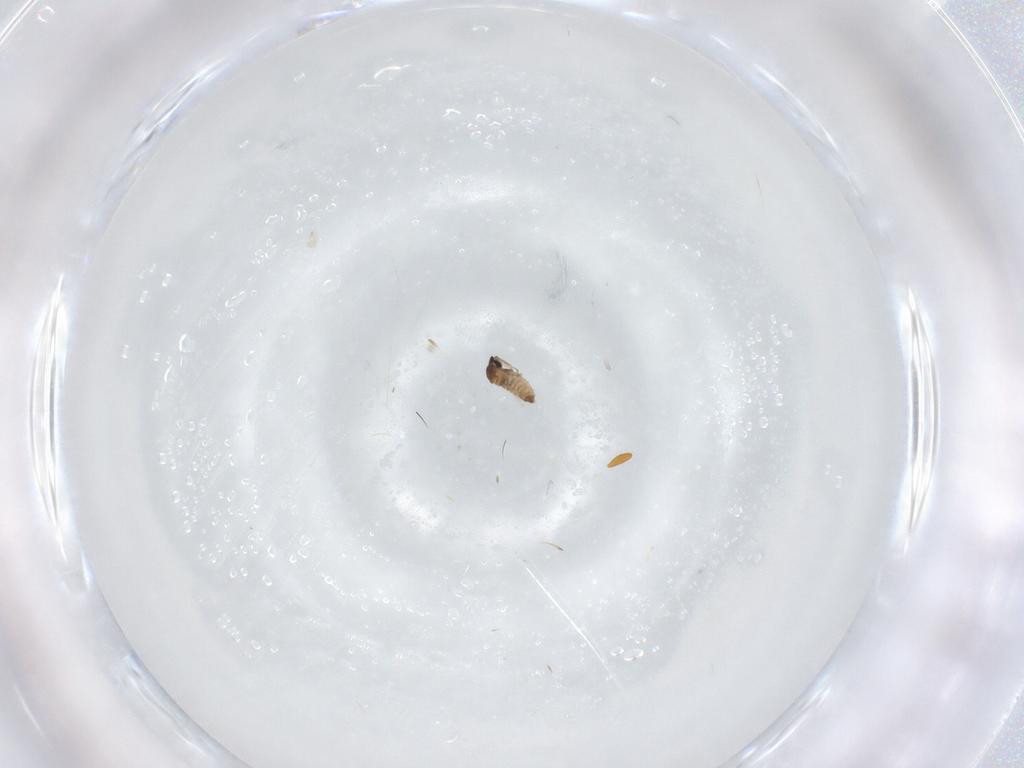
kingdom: Animalia
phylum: Arthropoda
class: Insecta
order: Diptera
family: Cecidomyiidae
